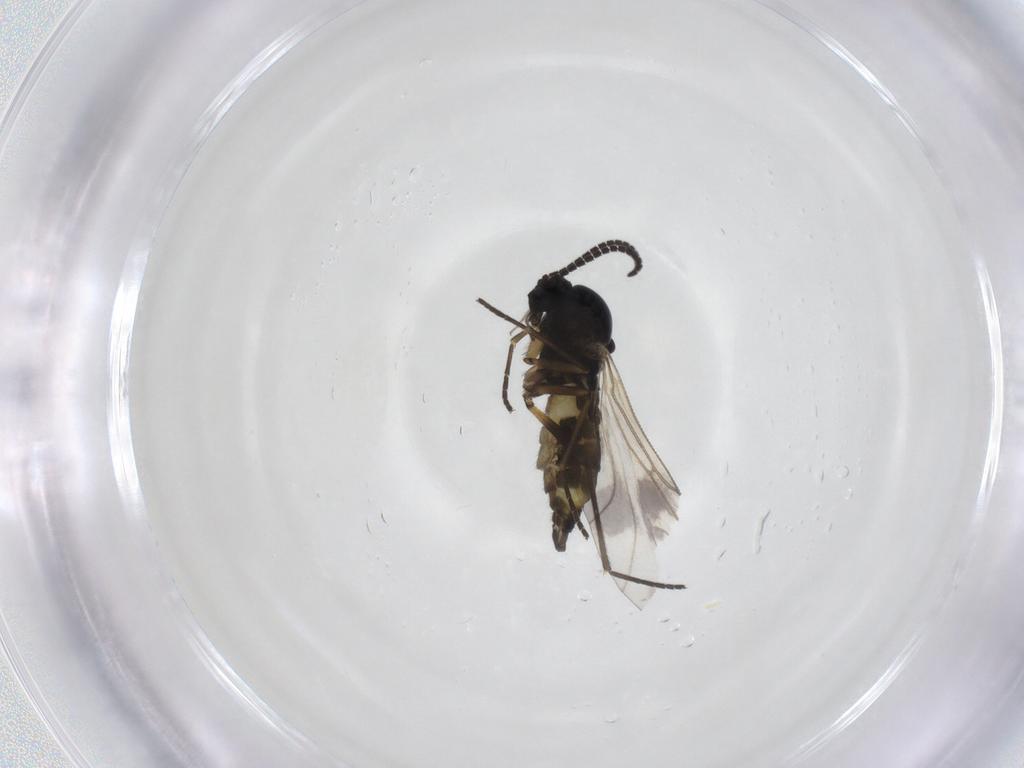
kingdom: Animalia
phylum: Arthropoda
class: Insecta
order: Diptera
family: Sciaridae
